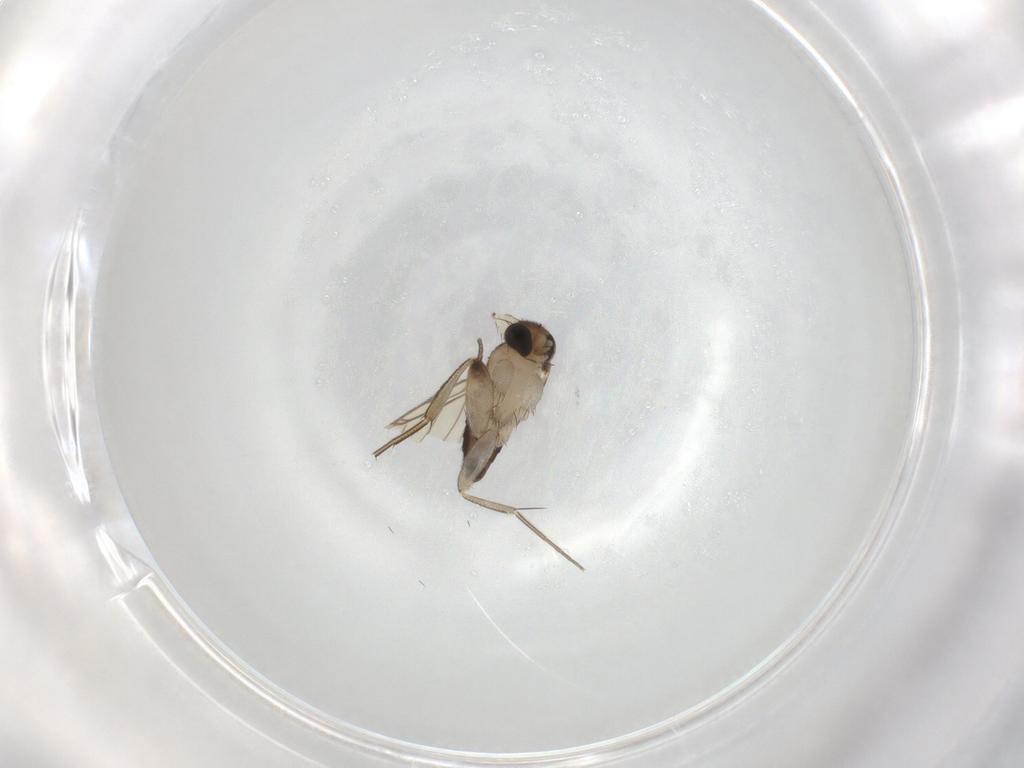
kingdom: Animalia
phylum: Arthropoda
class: Insecta
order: Diptera
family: Phoridae
